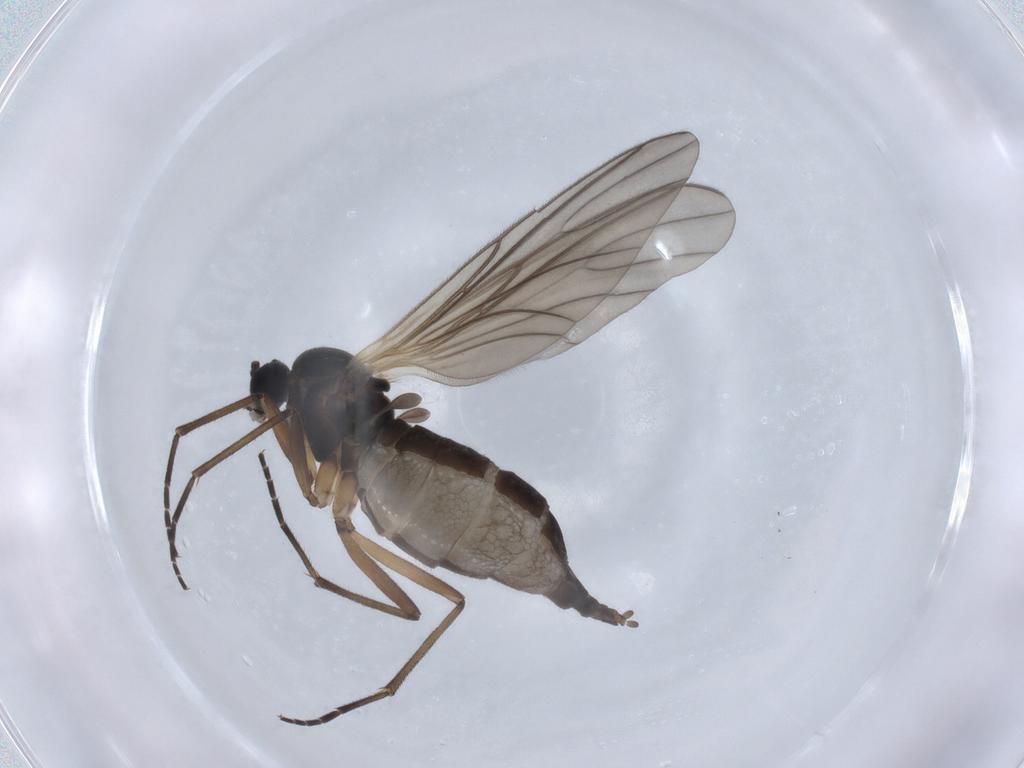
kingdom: Animalia
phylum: Arthropoda
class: Insecta
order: Diptera
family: Sciaridae
